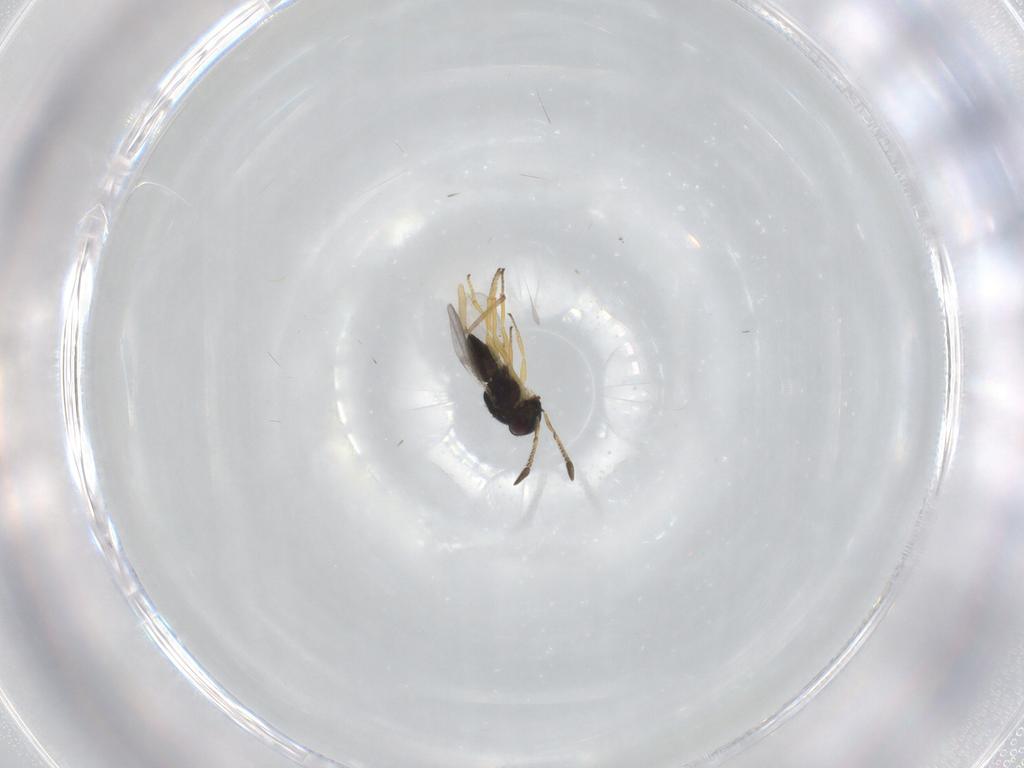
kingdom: Animalia
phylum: Arthropoda
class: Insecta
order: Hymenoptera
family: Encyrtidae
